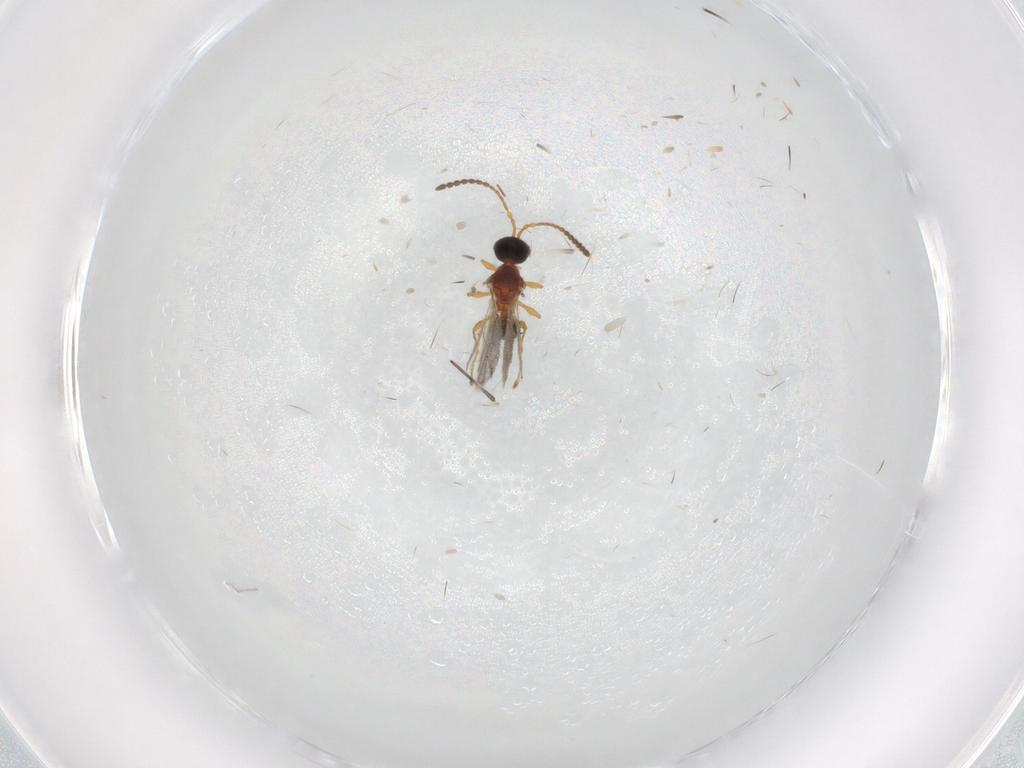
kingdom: Animalia
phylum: Arthropoda
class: Insecta
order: Hymenoptera
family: Diapriidae
